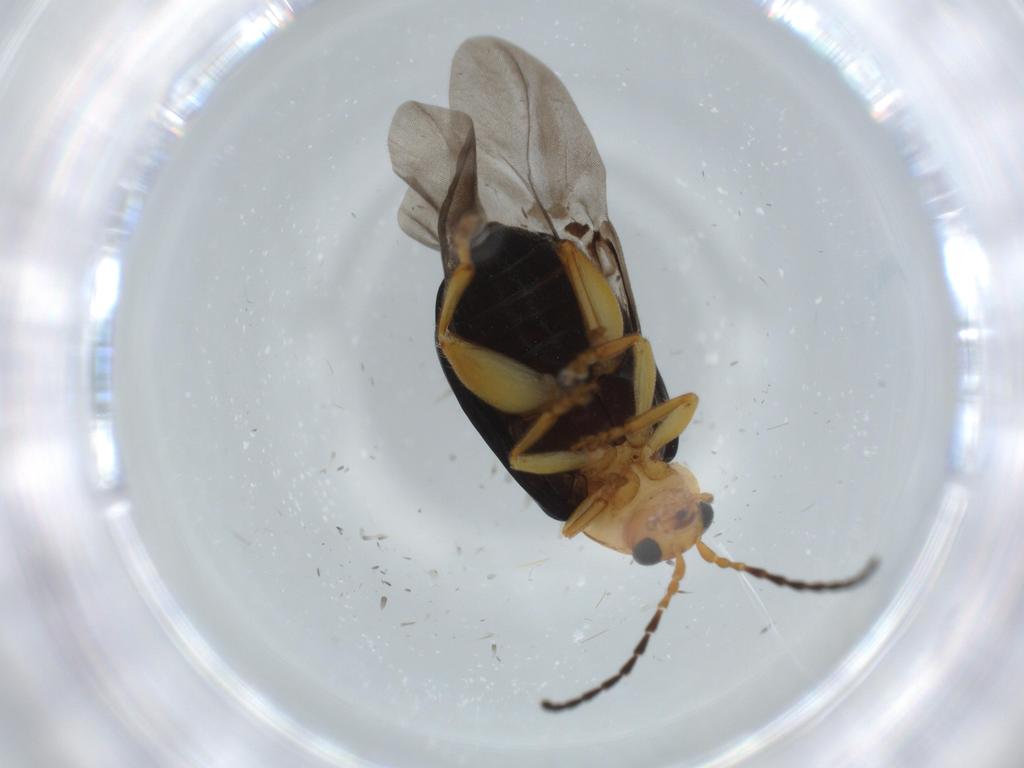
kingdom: Animalia
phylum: Arthropoda
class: Insecta
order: Coleoptera
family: Chrysomelidae
